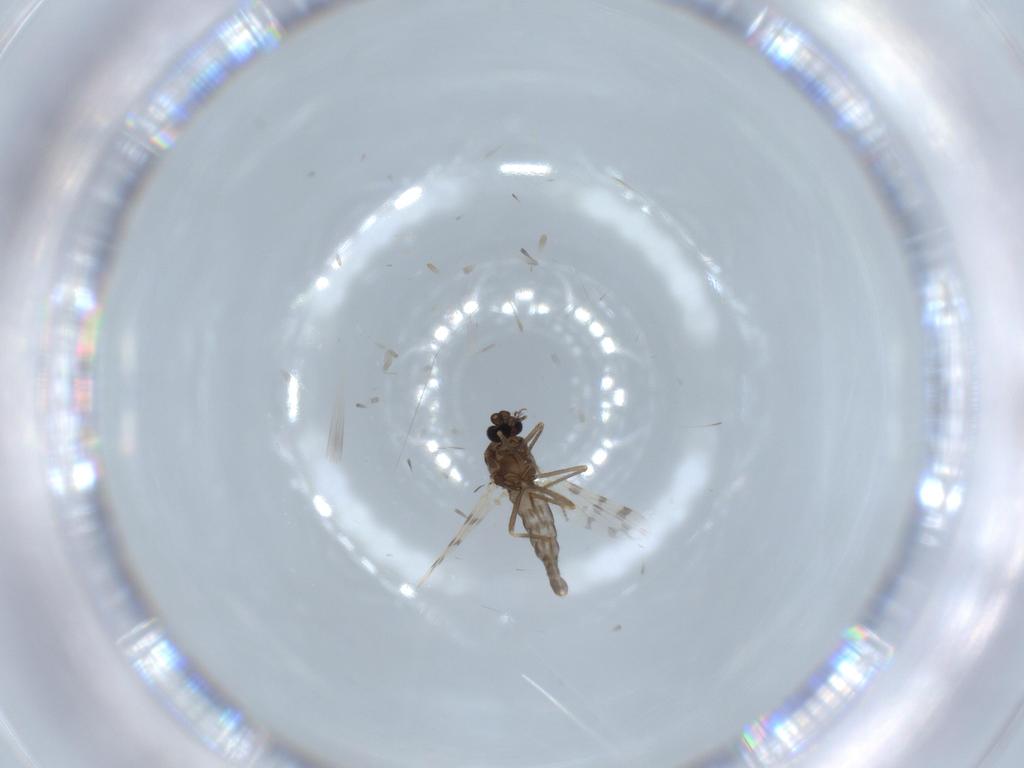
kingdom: Animalia
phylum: Arthropoda
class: Insecta
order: Diptera
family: Ceratopogonidae
